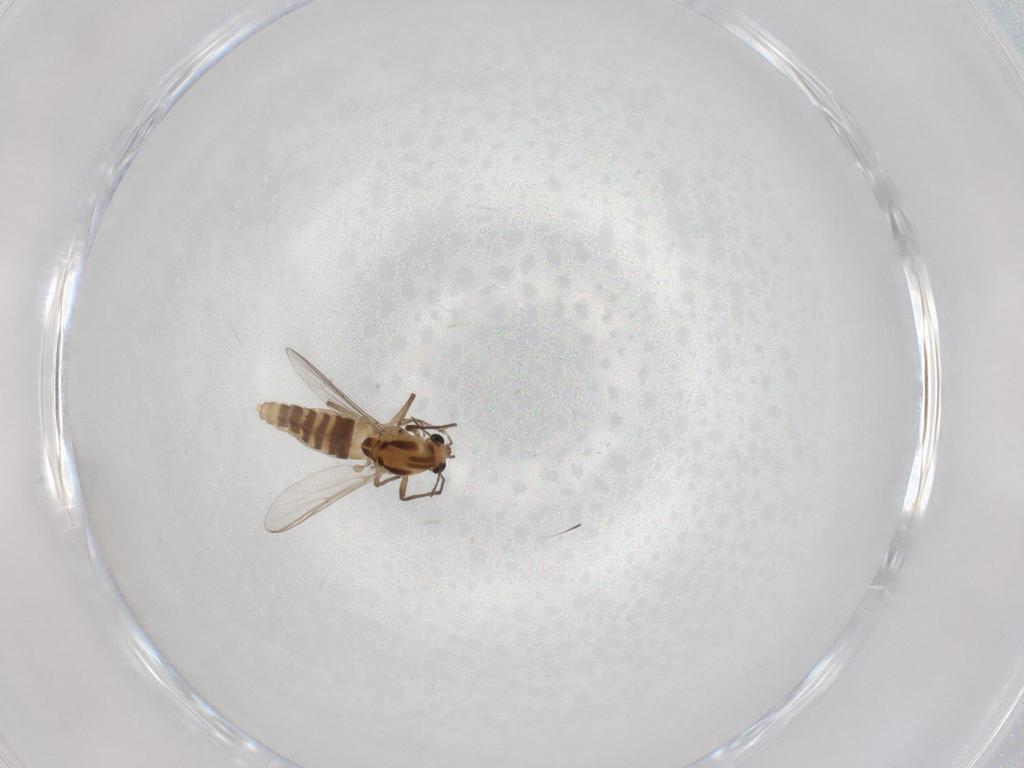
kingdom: Animalia
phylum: Arthropoda
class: Insecta
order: Diptera
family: Chironomidae
